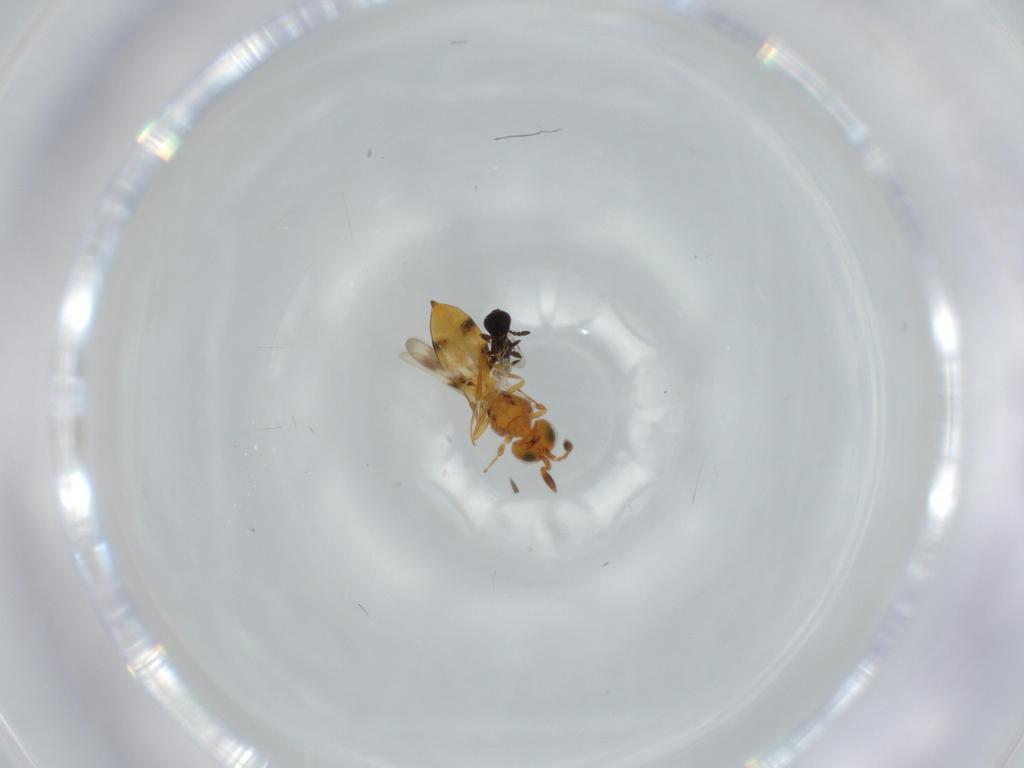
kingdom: Animalia
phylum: Arthropoda
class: Insecta
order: Hymenoptera
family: Scelionidae
